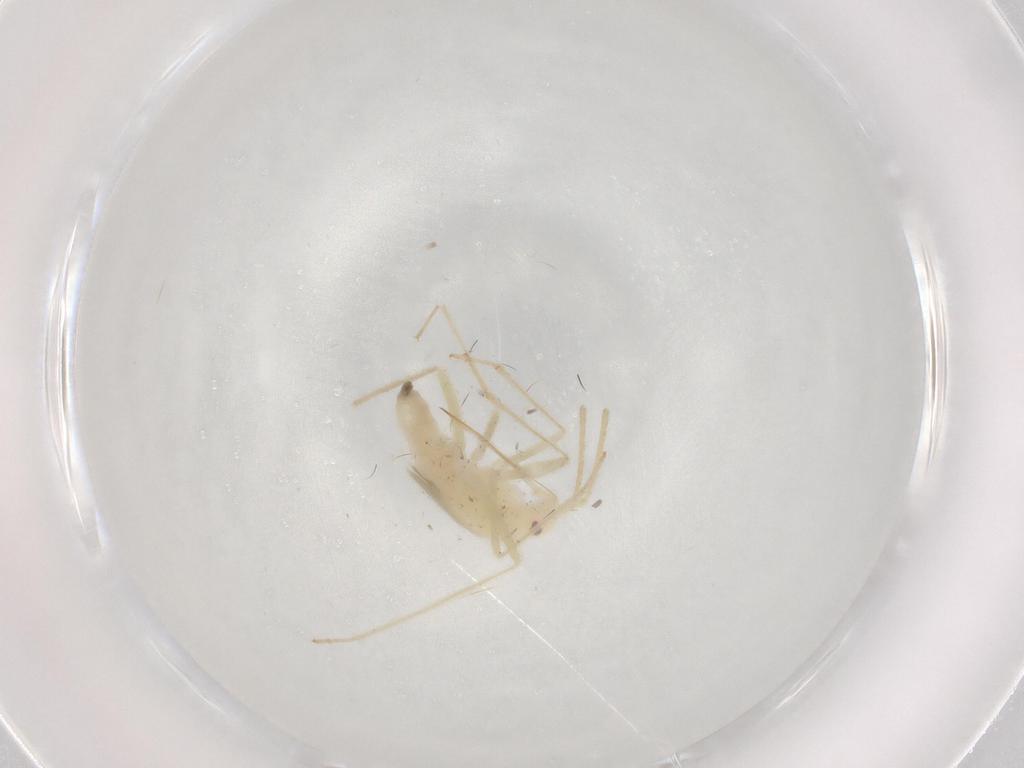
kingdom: Animalia
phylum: Arthropoda
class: Insecta
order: Hemiptera
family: Miridae
